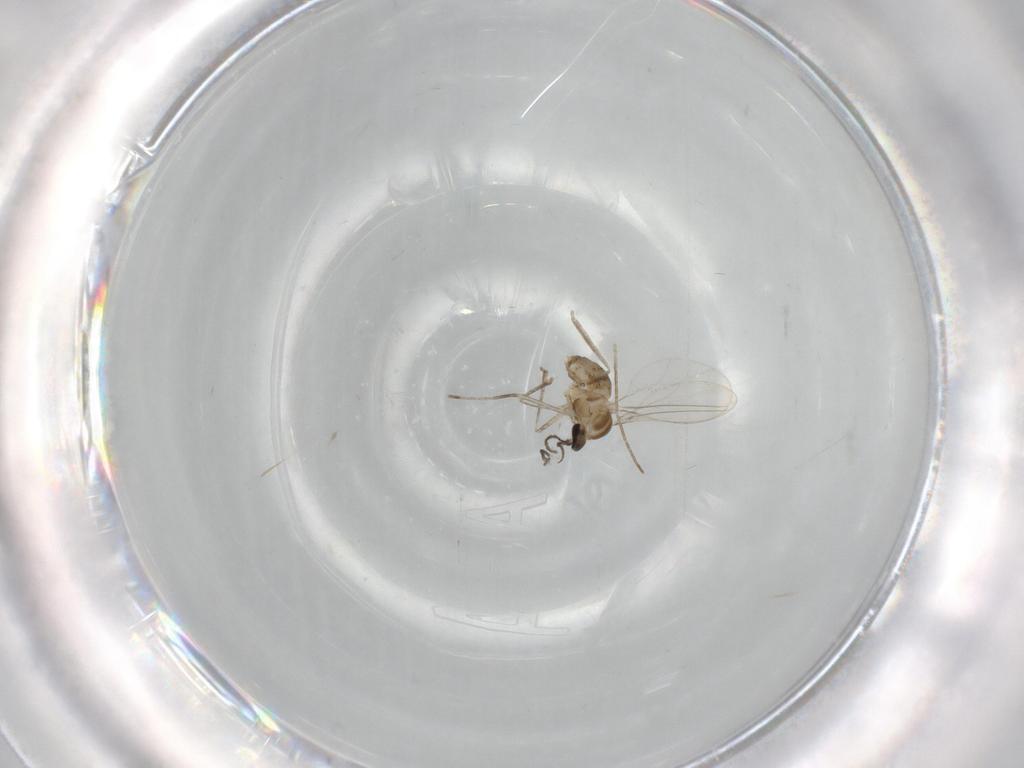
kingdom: Animalia
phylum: Arthropoda
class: Insecta
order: Diptera
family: Cecidomyiidae
